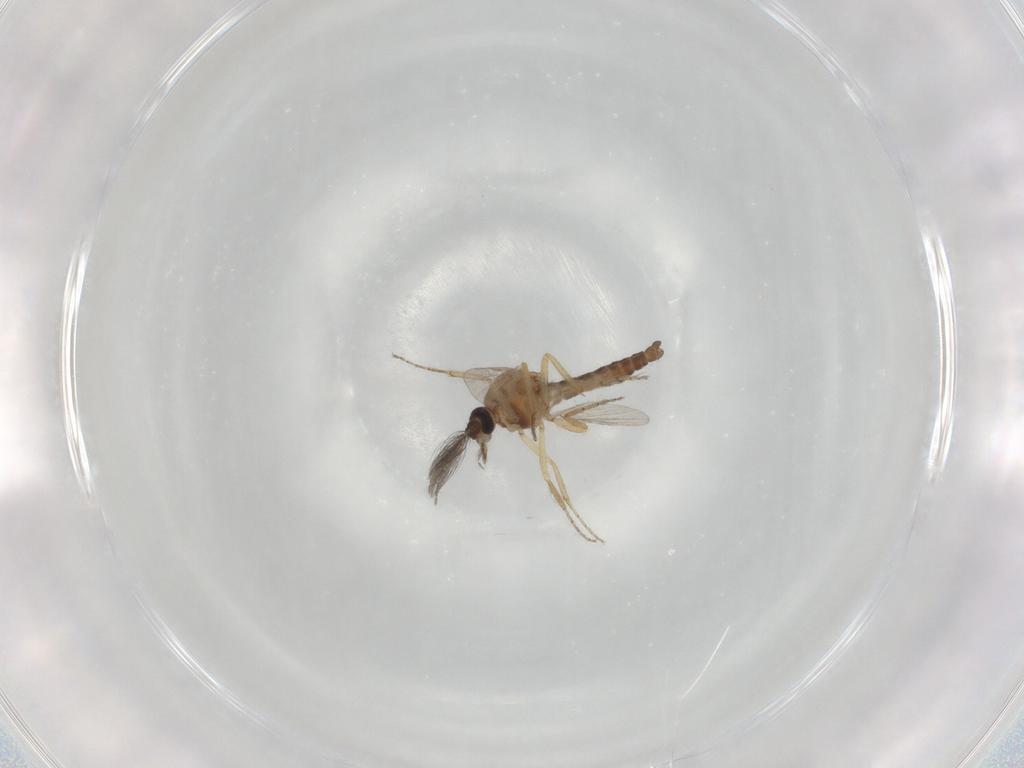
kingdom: Animalia
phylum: Arthropoda
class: Insecta
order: Diptera
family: Ceratopogonidae
